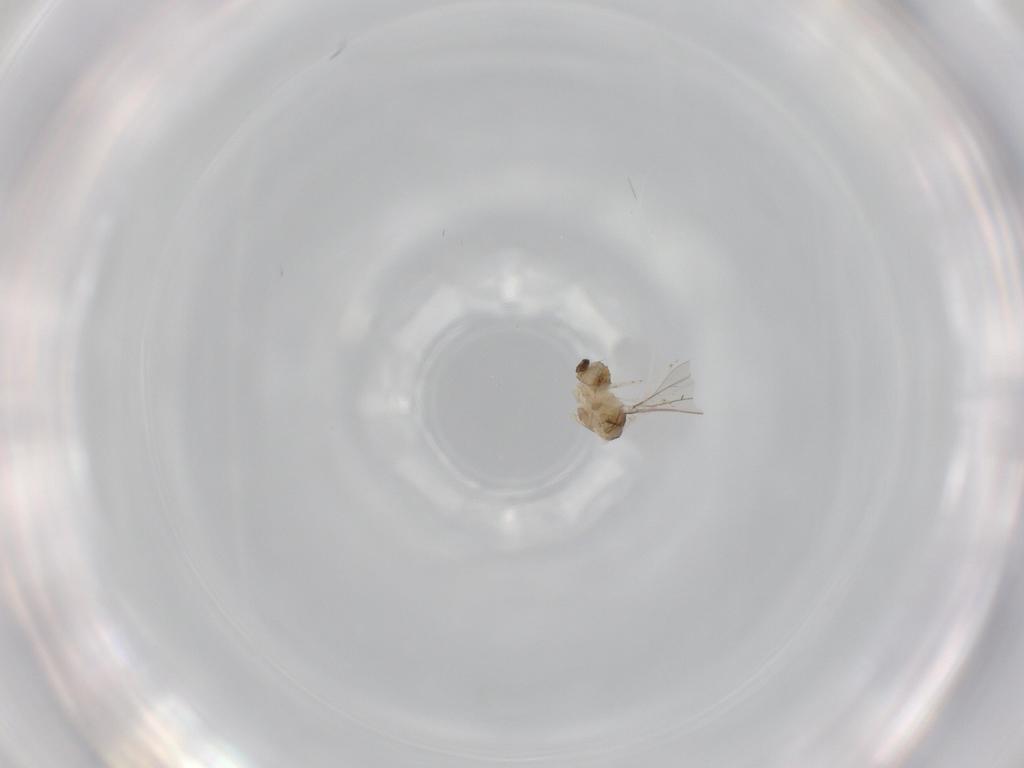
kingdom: Animalia
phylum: Arthropoda
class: Insecta
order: Diptera
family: Cecidomyiidae
